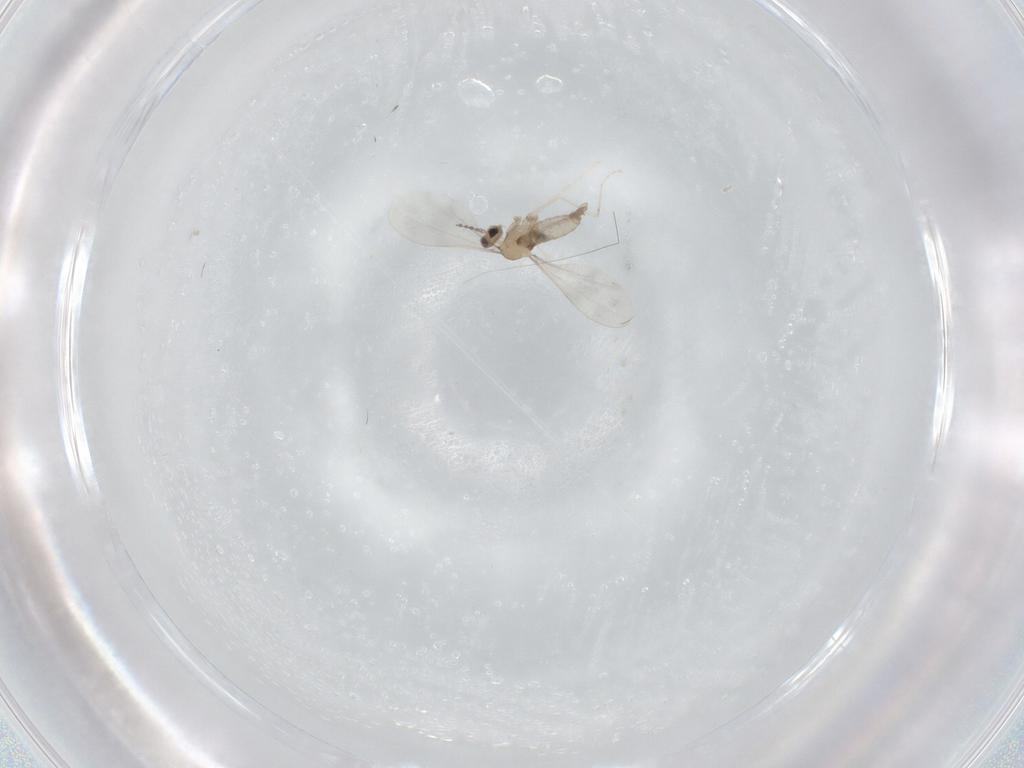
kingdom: Animalia
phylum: Arthropoda
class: Insecta
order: Diptera
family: Cecidomyiidae
